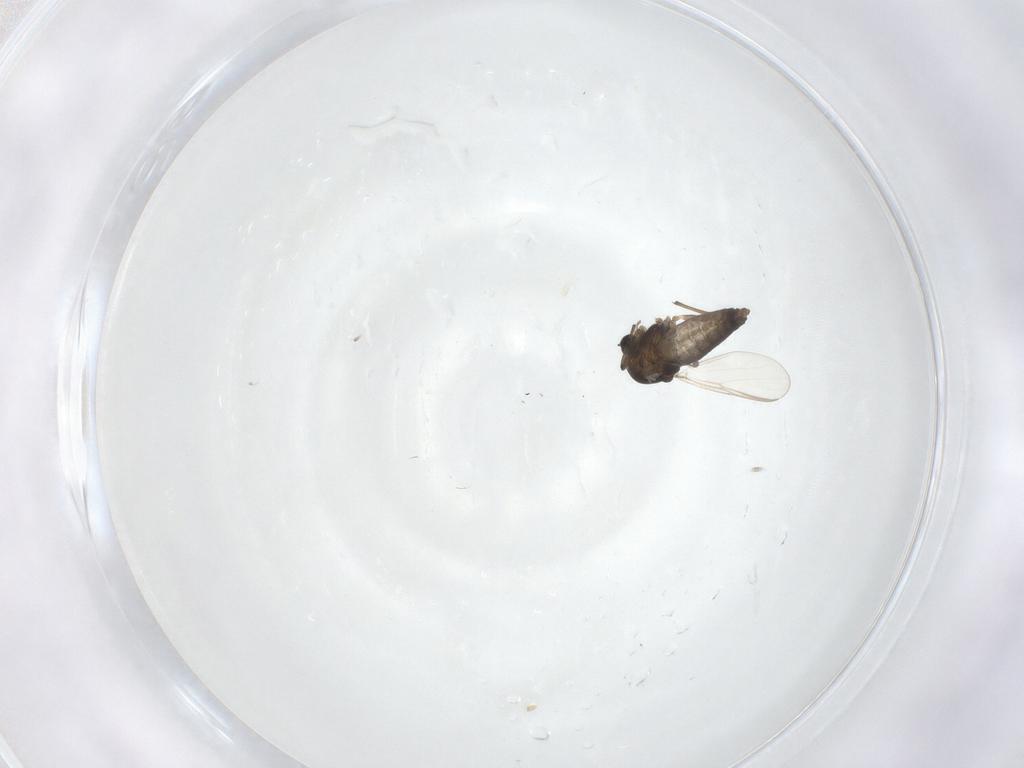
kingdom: Animalia
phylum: Arthropoda
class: Insecta
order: Diptera
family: Chironomidae
